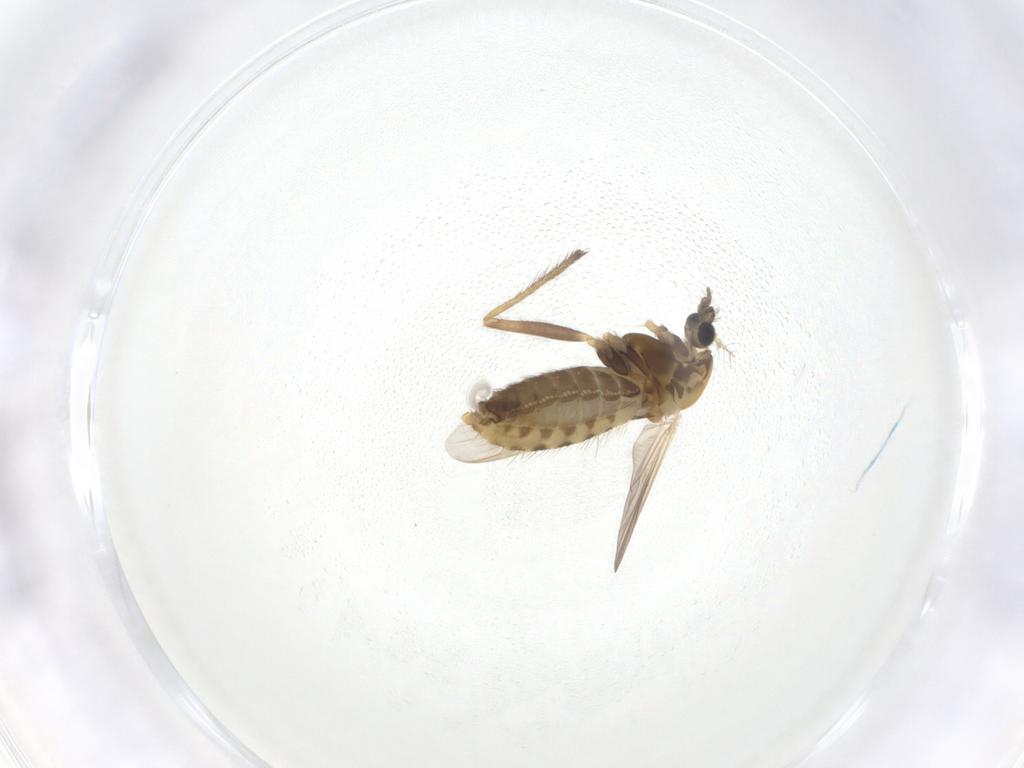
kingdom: Animalia
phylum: Arthropoda
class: Insecta
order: Diptera
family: Chironomidae
